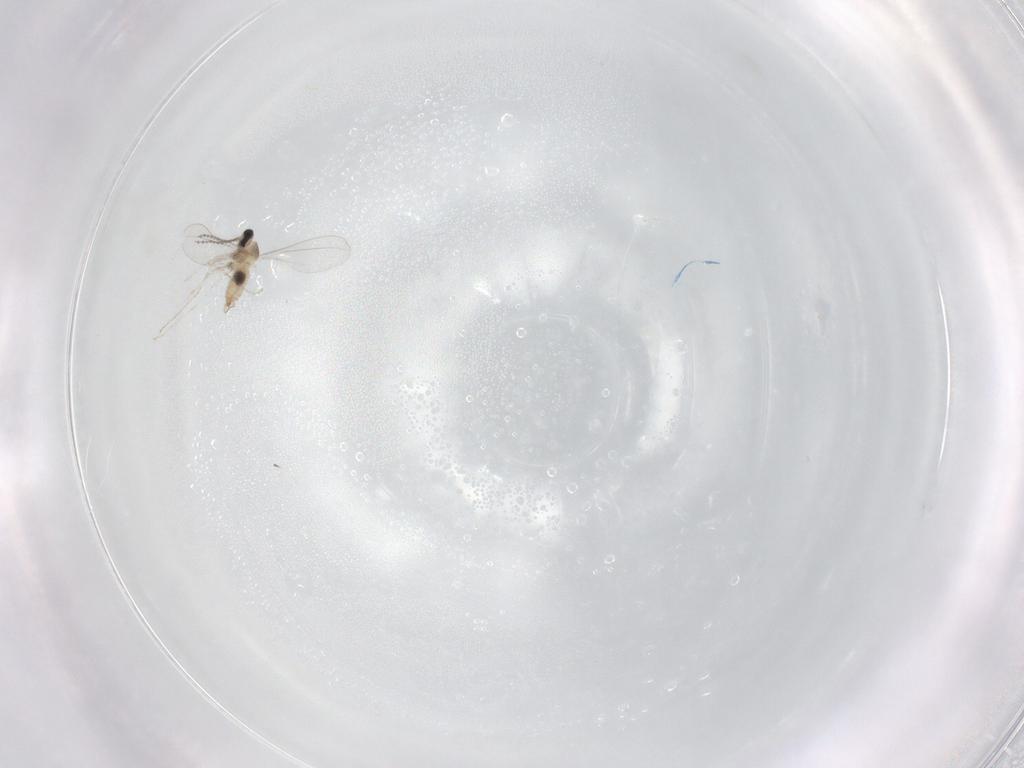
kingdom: Animalia
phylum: Arthropoda
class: Insecta
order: Diptera
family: Cecidomyiidae
